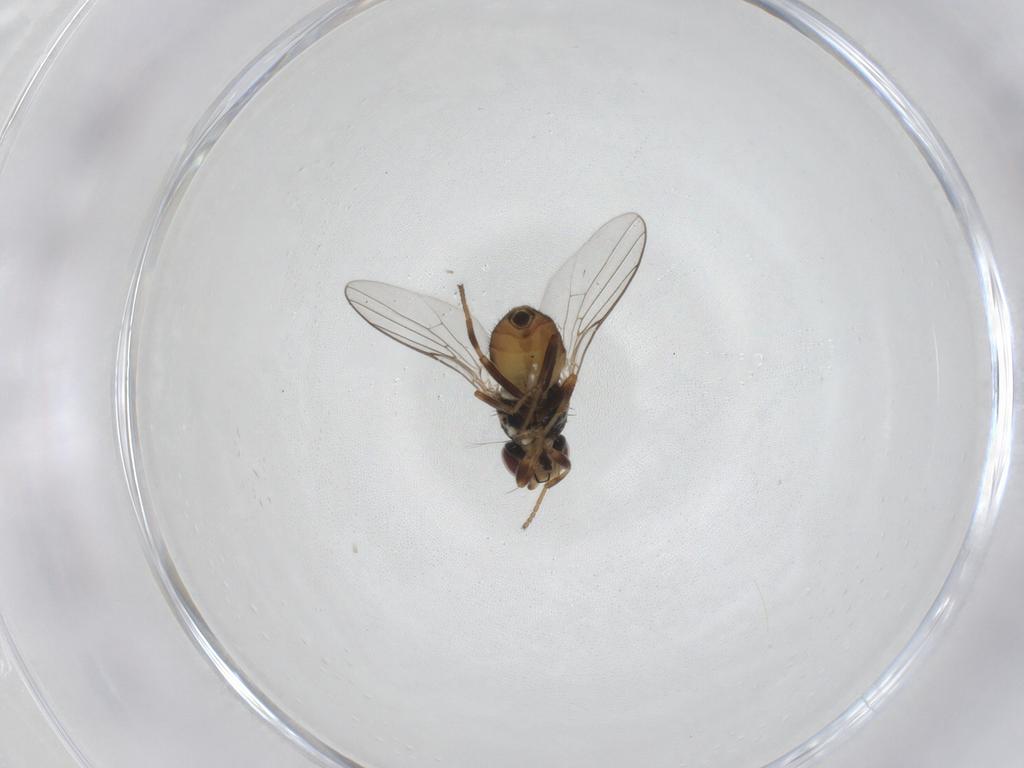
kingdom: Animalia
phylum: Arthropoda
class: Insecta
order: Diptera
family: Chloropidae
